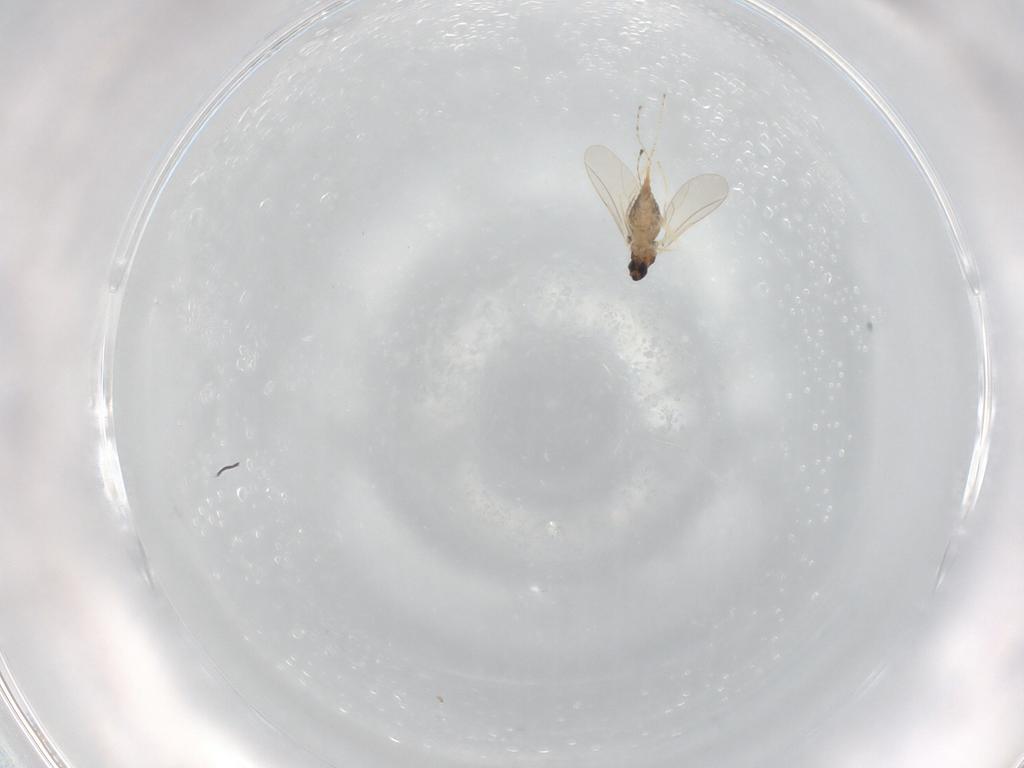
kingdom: Animalia
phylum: Arthropoda
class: Insecta
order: Diptera
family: Cecidomyiidae
